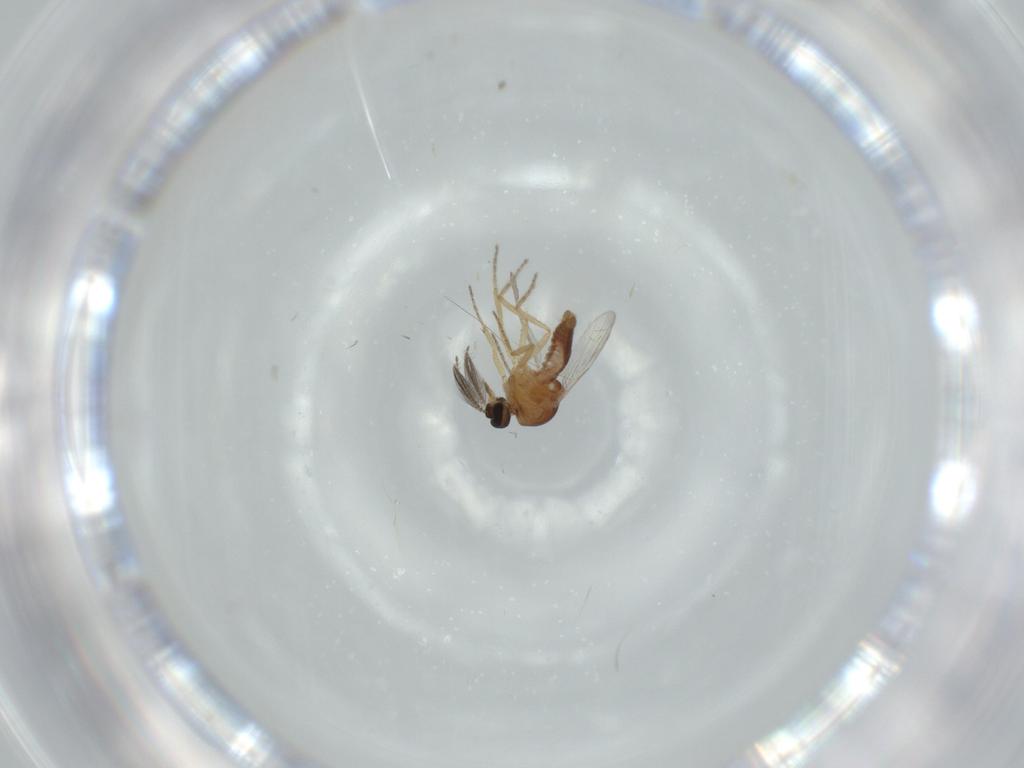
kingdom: Animalia
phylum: Arthropoda
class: Insecta
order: Diptera
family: Ceratopogonidae
